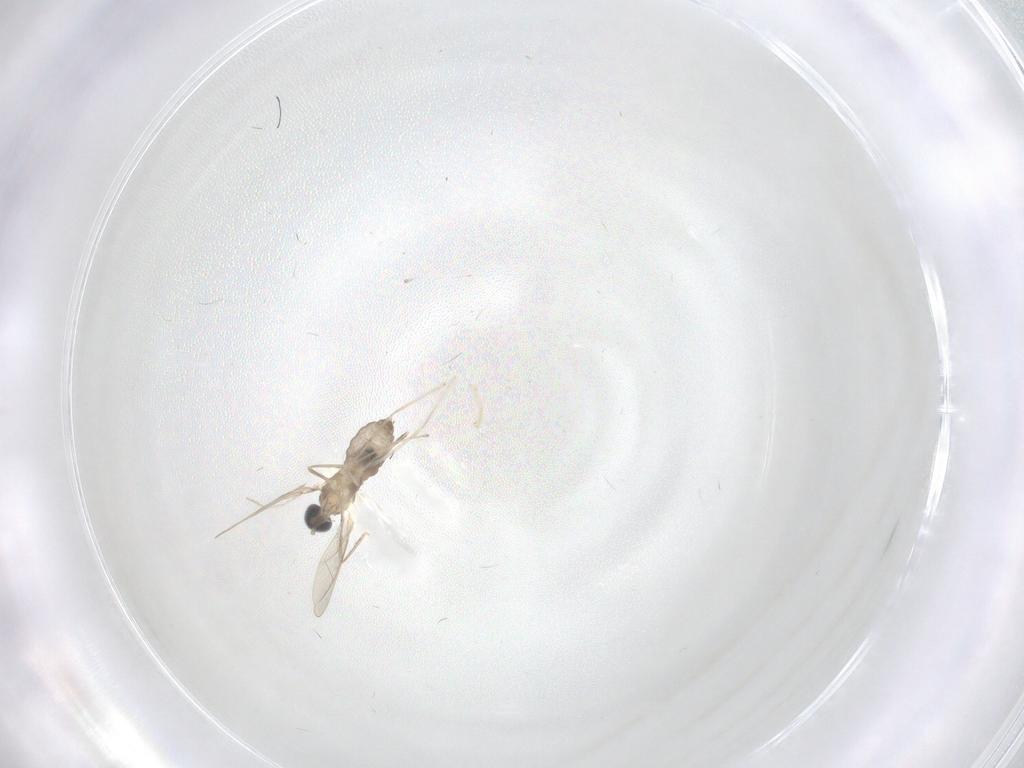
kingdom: Animalia
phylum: Arthropoda
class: Insecta
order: Diptera
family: Cecidomyiidae
